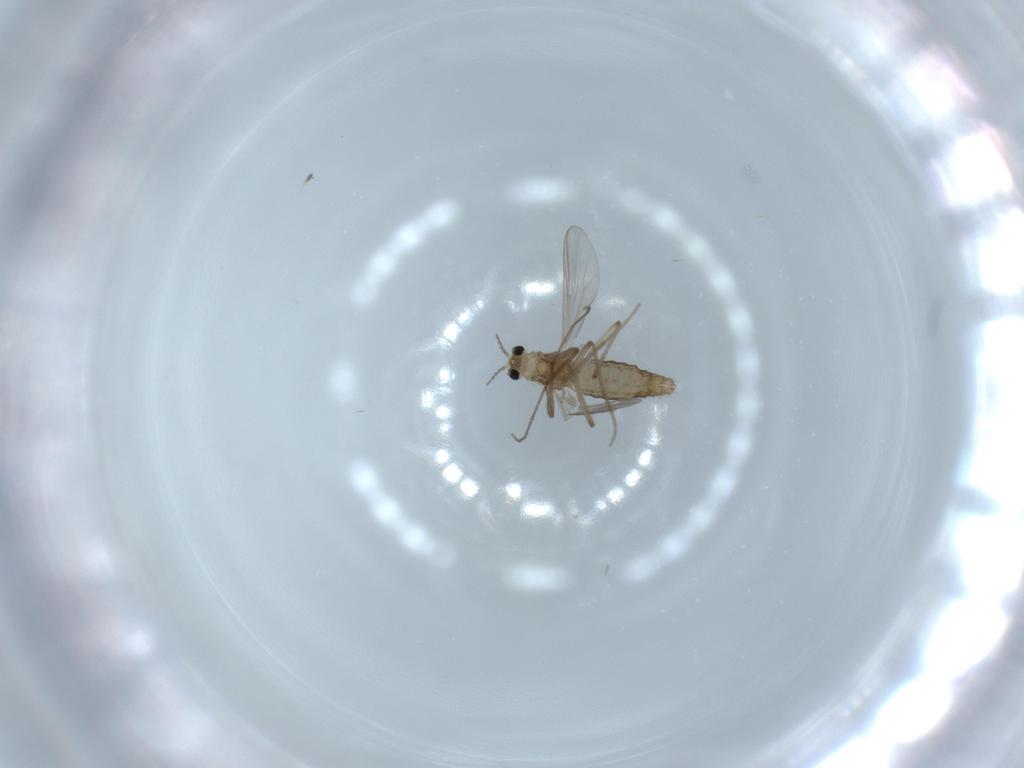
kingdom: Animalia
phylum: Arthropoda
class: Insecta
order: Diptera
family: Chironomidae
